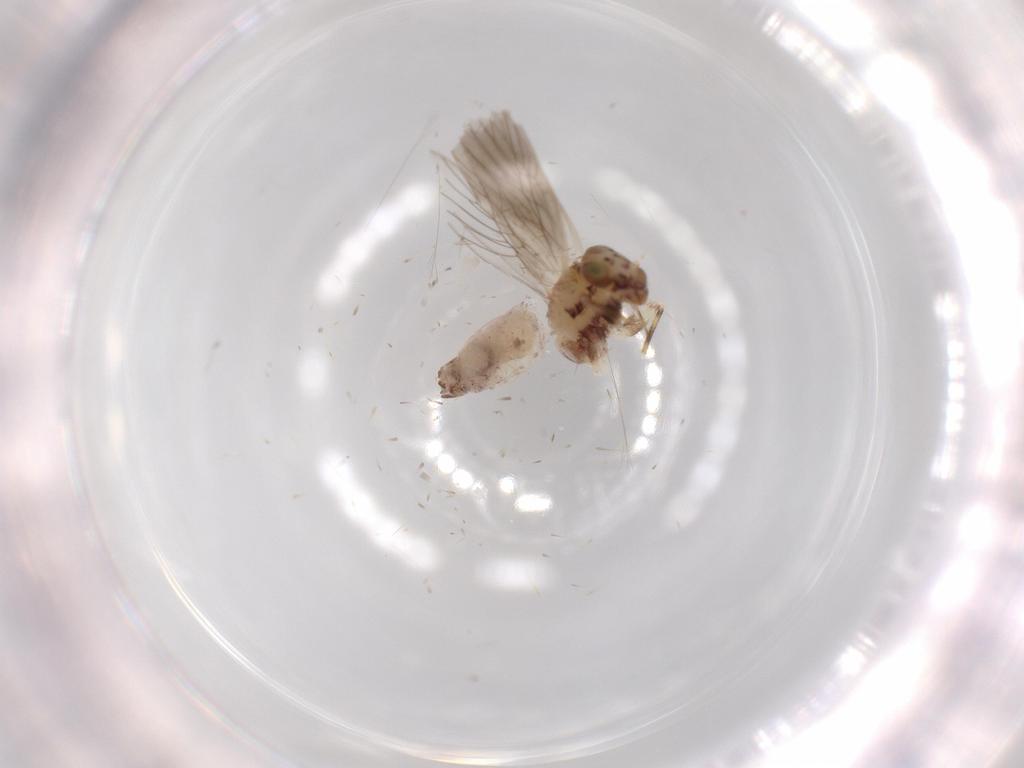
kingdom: Animalia
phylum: Arthropoda
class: Insecta
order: Psocodea
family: Lepidopsocidae
